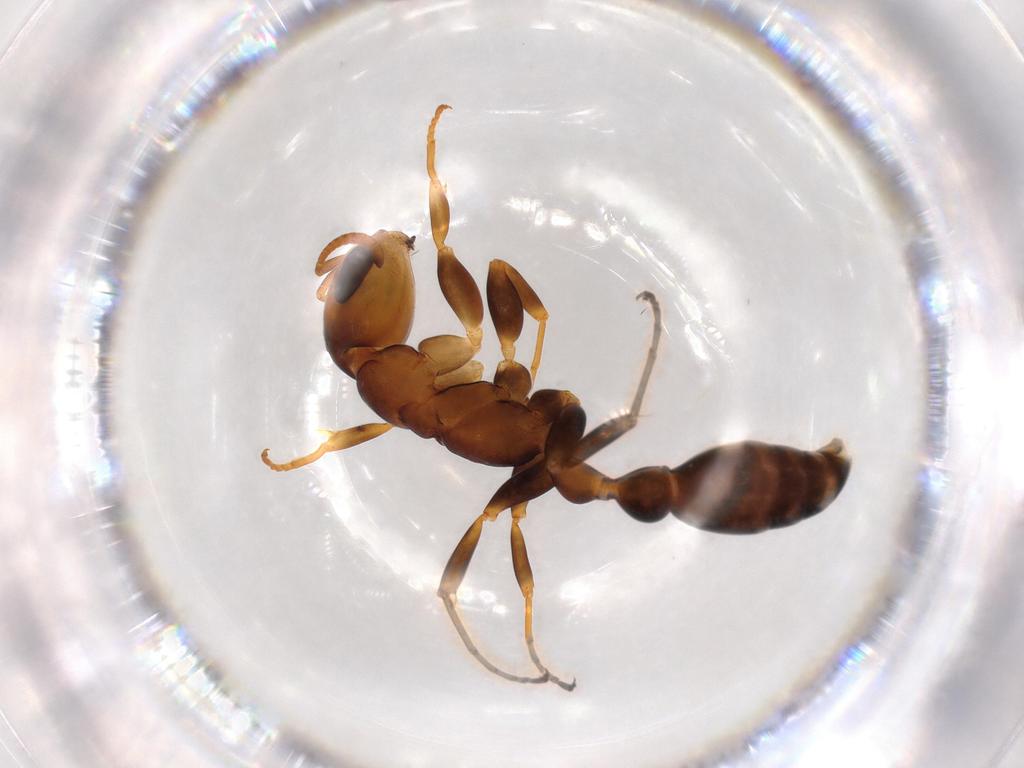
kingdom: Animalia
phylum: Arthropoda
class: Insecta
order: Hymenoptera
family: Formicidae
